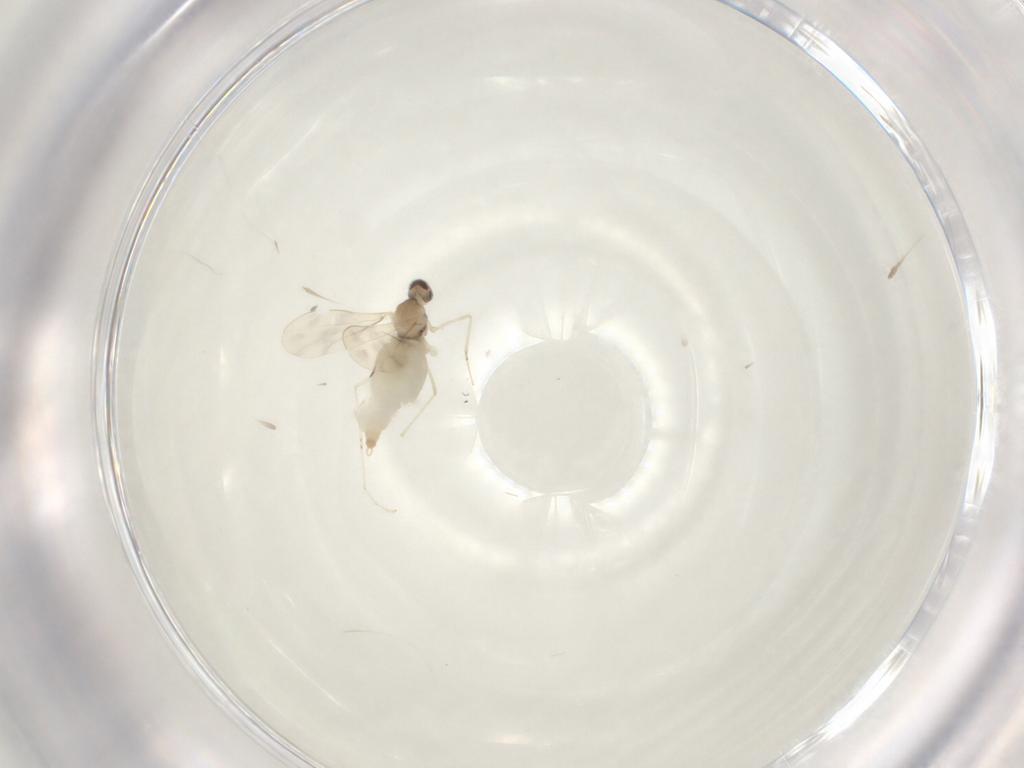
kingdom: Animalia
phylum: Arthropoda
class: Insecta
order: Diptera
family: Cecidomyiidae
